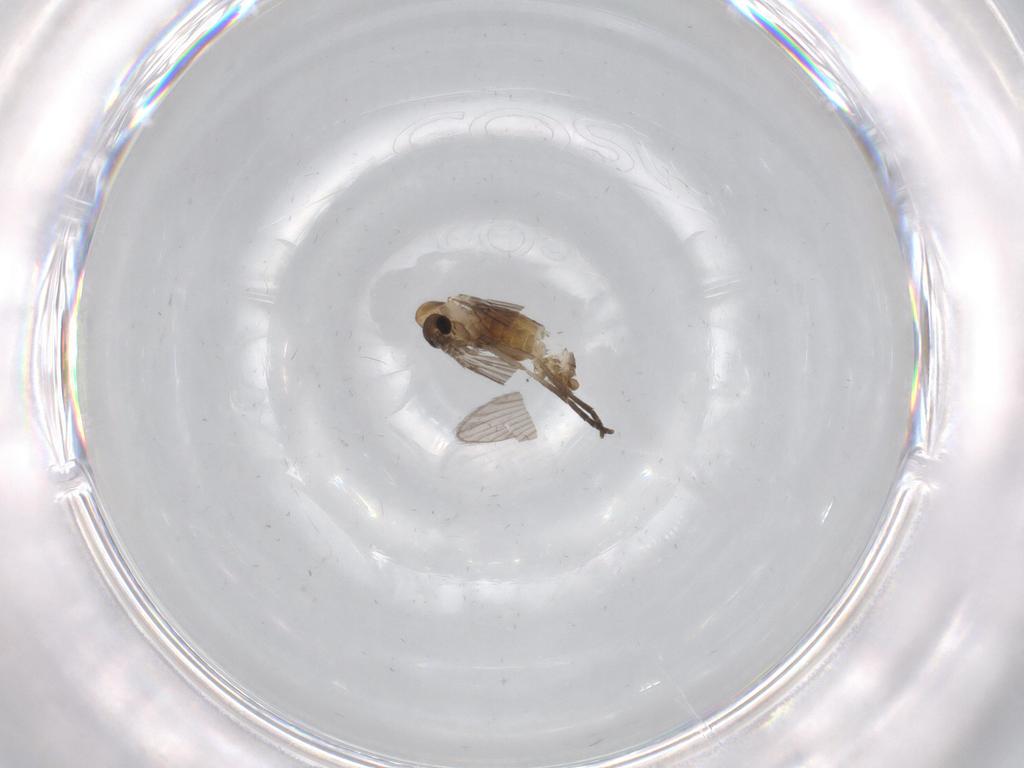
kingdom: Animalia
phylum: Arthropoda
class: Insecta
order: Diptera
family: Psychodidae
